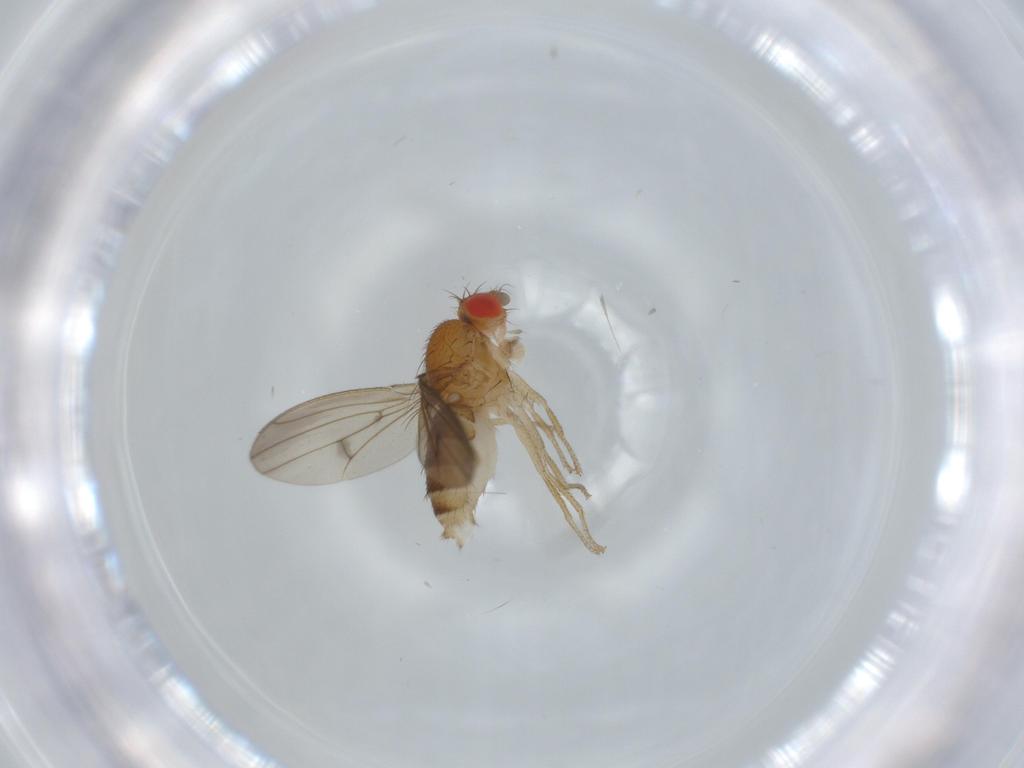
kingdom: Animalia
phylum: Arthropoda
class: Insecta
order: Diptera
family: Drosophilidae
